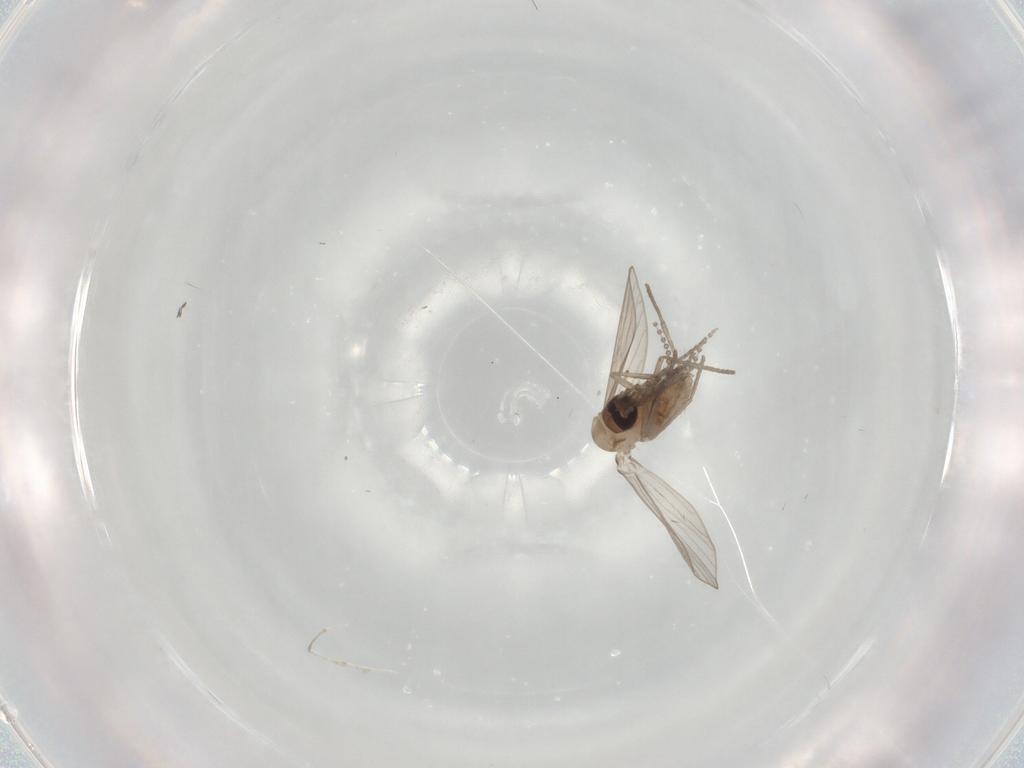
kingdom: Animalia
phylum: Arthropoda
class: Insecta
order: Diptera
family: Psychodidae
